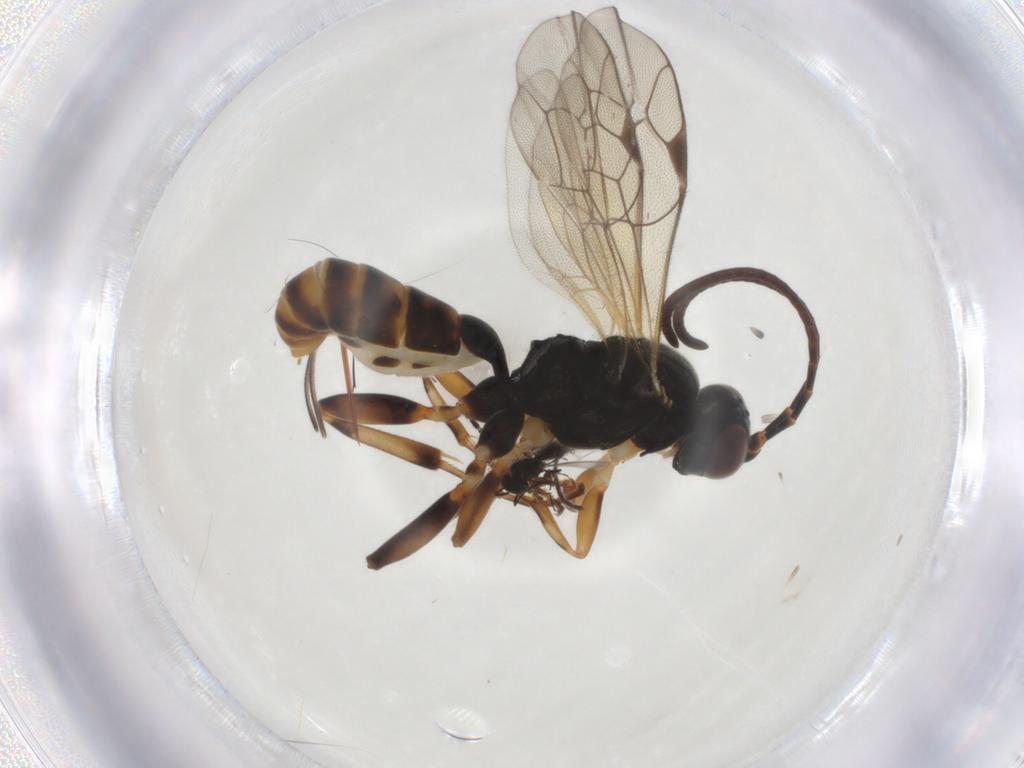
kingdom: Animalia
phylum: Arthropoda
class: Insecta
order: Hymenoptera
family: Ichneumonidae
